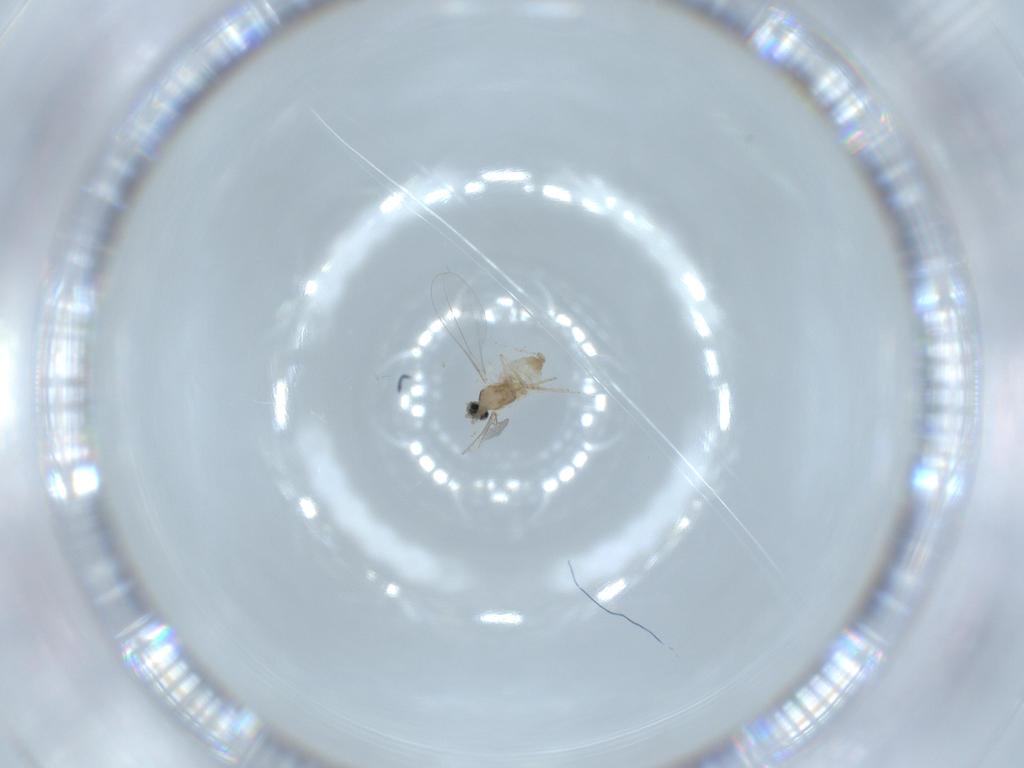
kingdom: Animalia
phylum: Arthropoda
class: Insecta
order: Diptera
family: Cecidomyiidae
